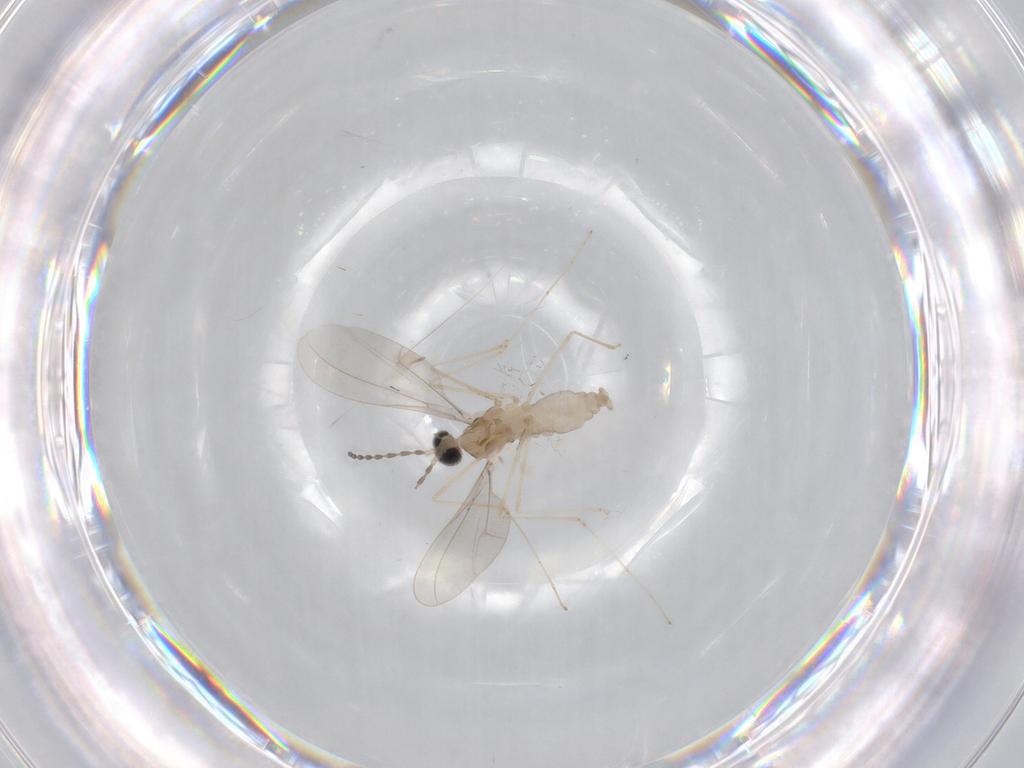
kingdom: Animalia
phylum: Arthropoda
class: Insecta
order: Diptera
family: Cecidomyiidae
